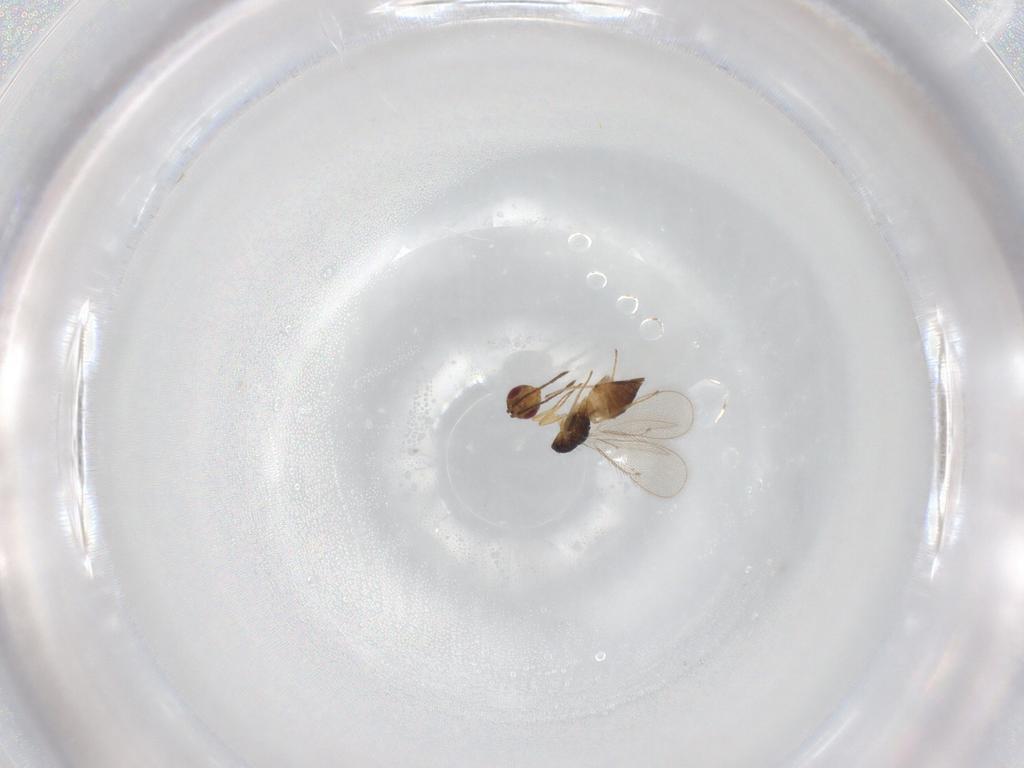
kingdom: Animalia
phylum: Arthropoda
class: Insecta
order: Hymenoptera
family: Eulophidae
